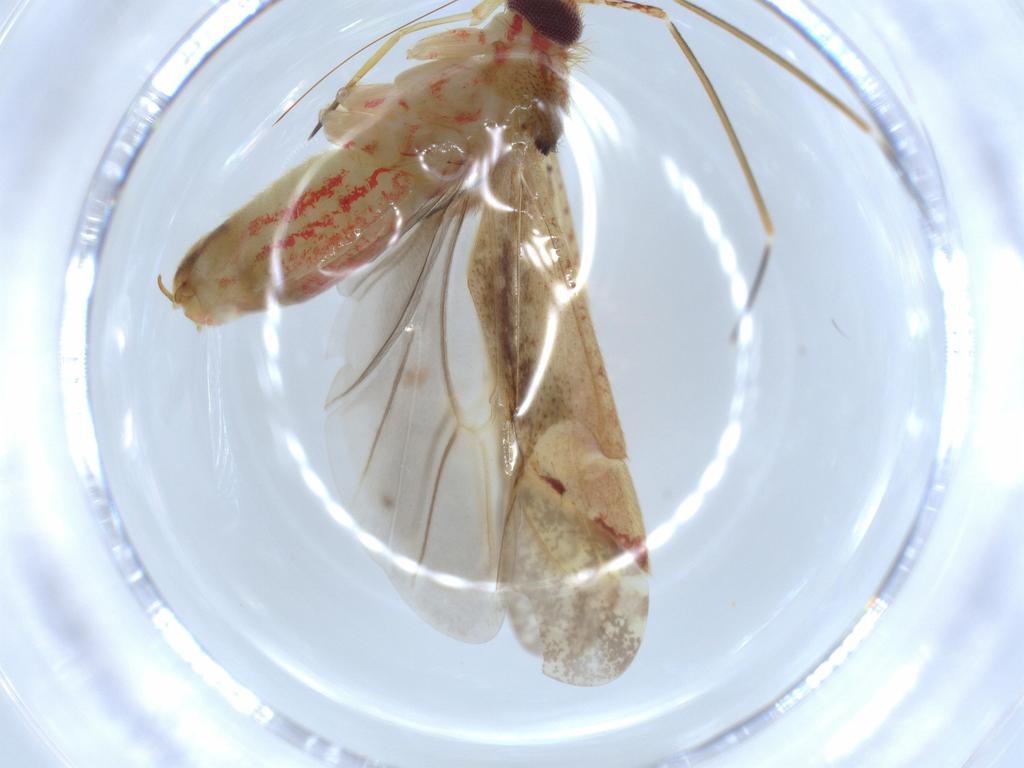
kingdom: Animalia
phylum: Arthropoda
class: Insecta
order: Diptera
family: Sciaridae
